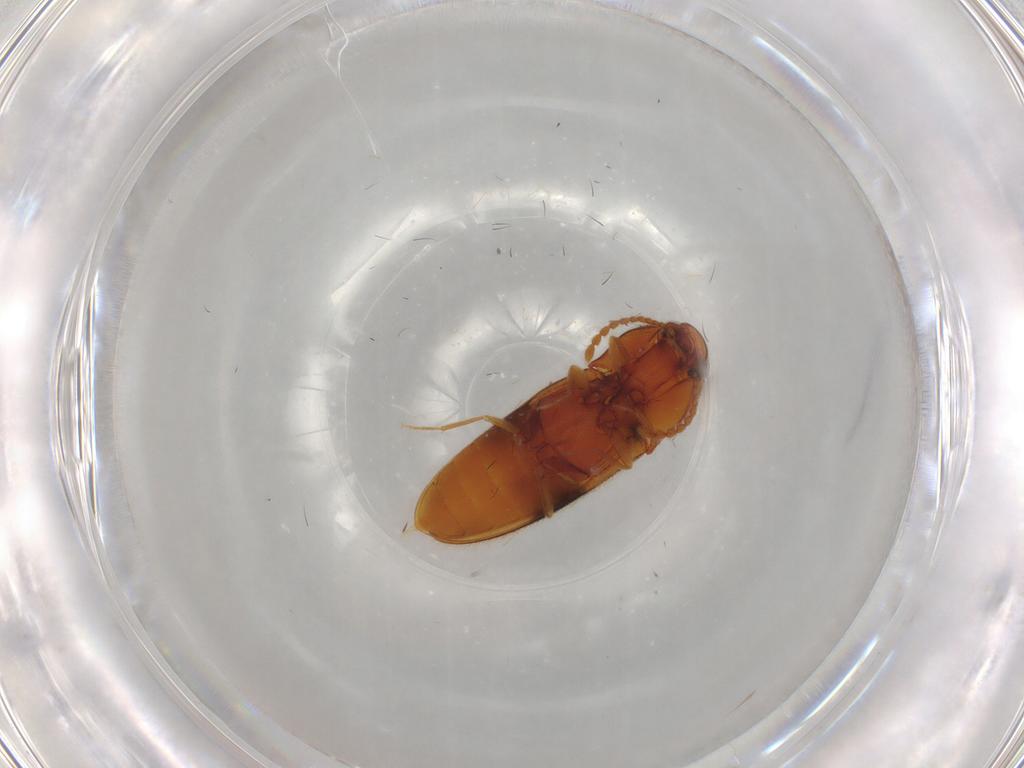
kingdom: Animalia
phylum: Arthropoda
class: Insecta
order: Coleoptera
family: Elateridae
